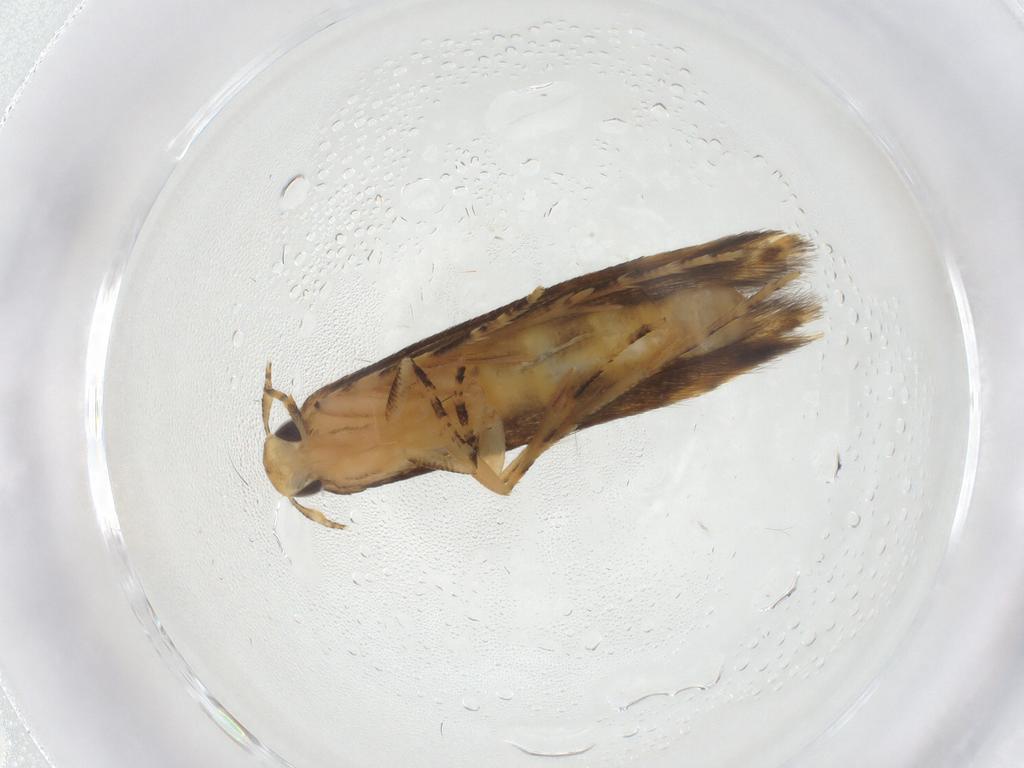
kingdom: Animalia
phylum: Arthropoda
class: Insecta
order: Lepidoptera
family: Erebidae
